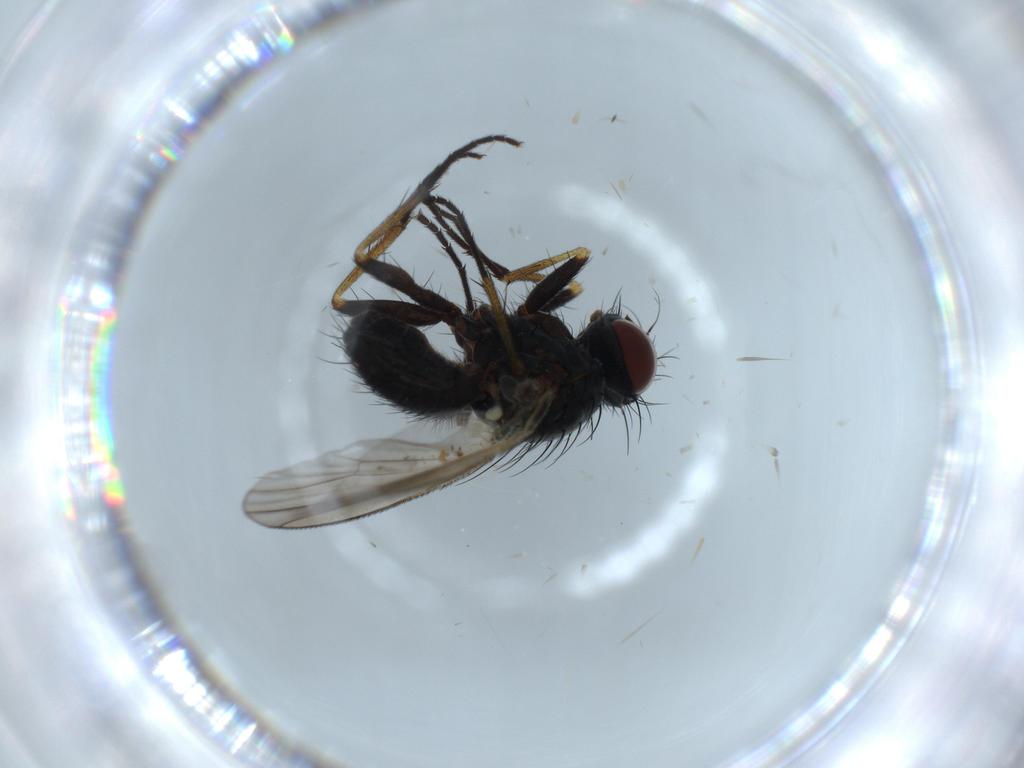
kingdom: Animalia
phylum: Arthropoda
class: Insecta
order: Diptera
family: Muscidae
